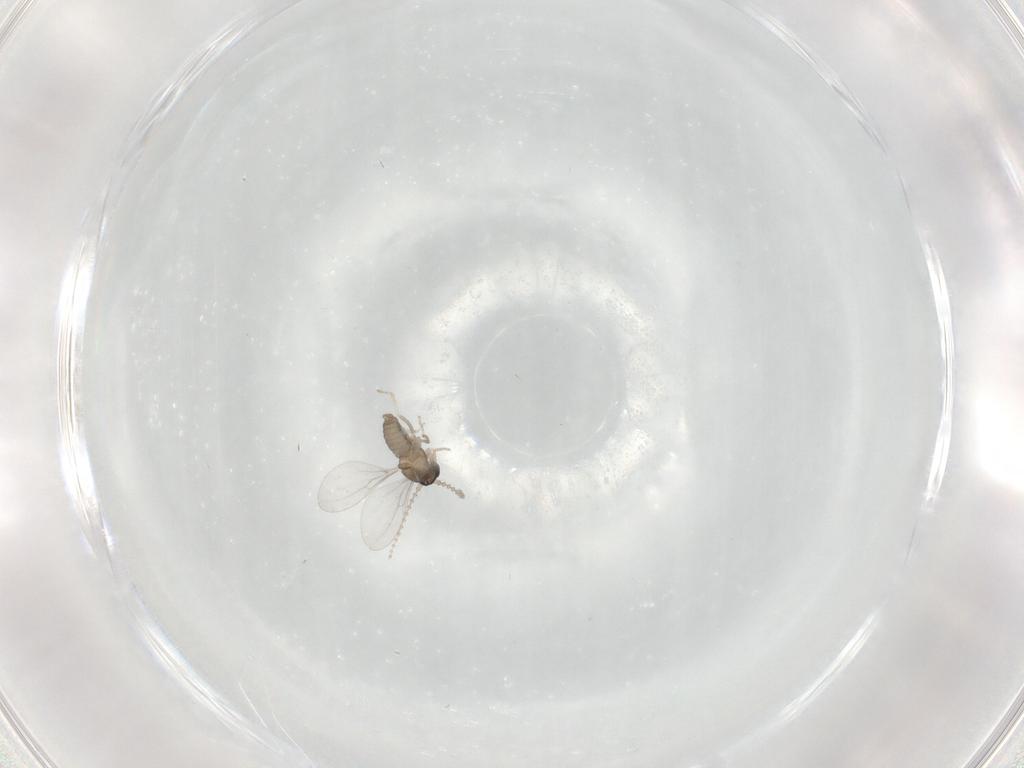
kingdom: Animalia
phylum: Arthropoda
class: Insecta
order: Diptera
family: Cecidomyiidae
